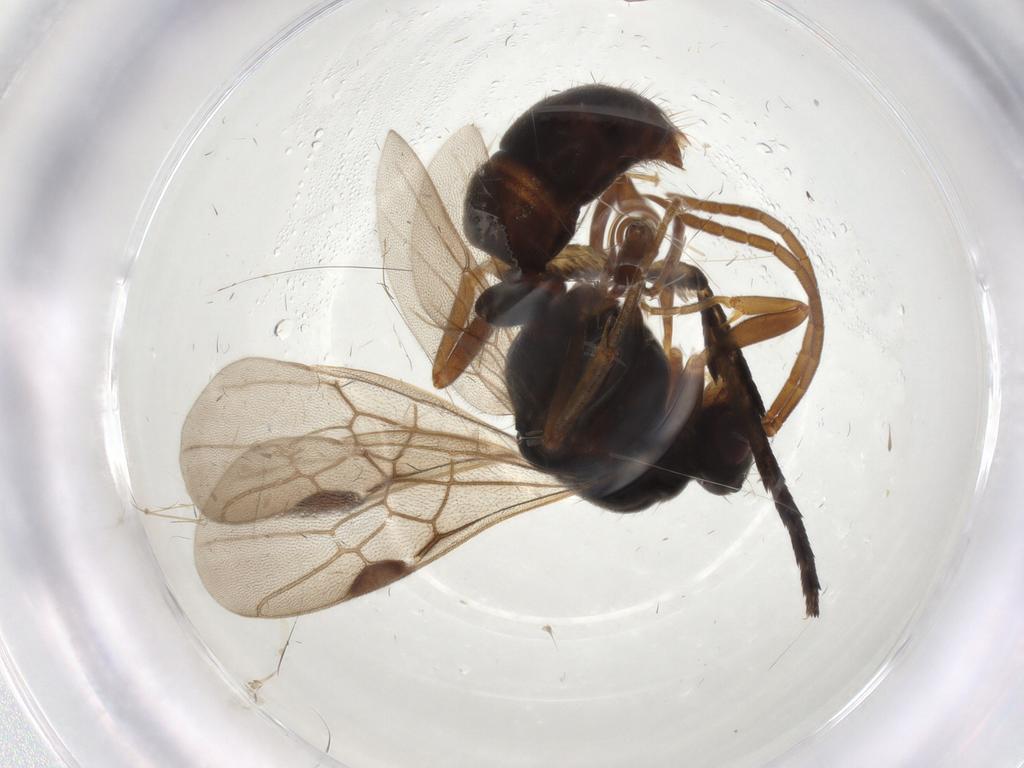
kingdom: Animalia
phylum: Arthropoda
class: Insecta
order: Hymenoptera
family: Formicidae
